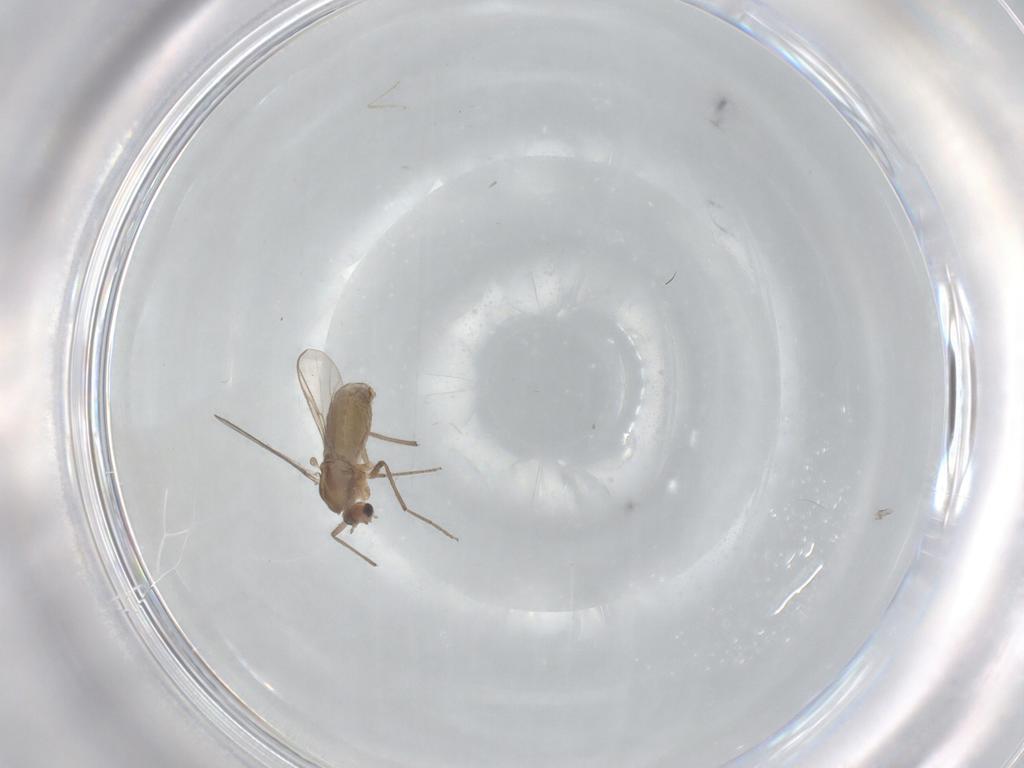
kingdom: Animalia
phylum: Arthropoda
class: Insecta
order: Diptera
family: Chironomidae
